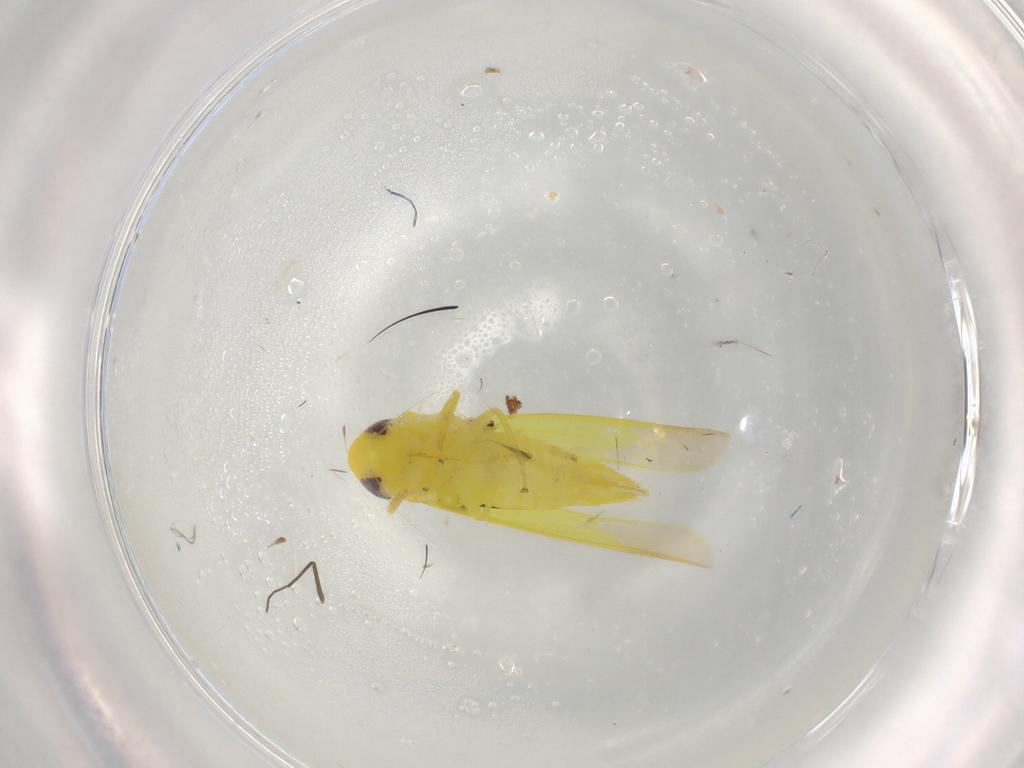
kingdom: Animalia
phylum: Arthropoda
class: Insecta
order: Hemiptera
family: Cicadellidae
